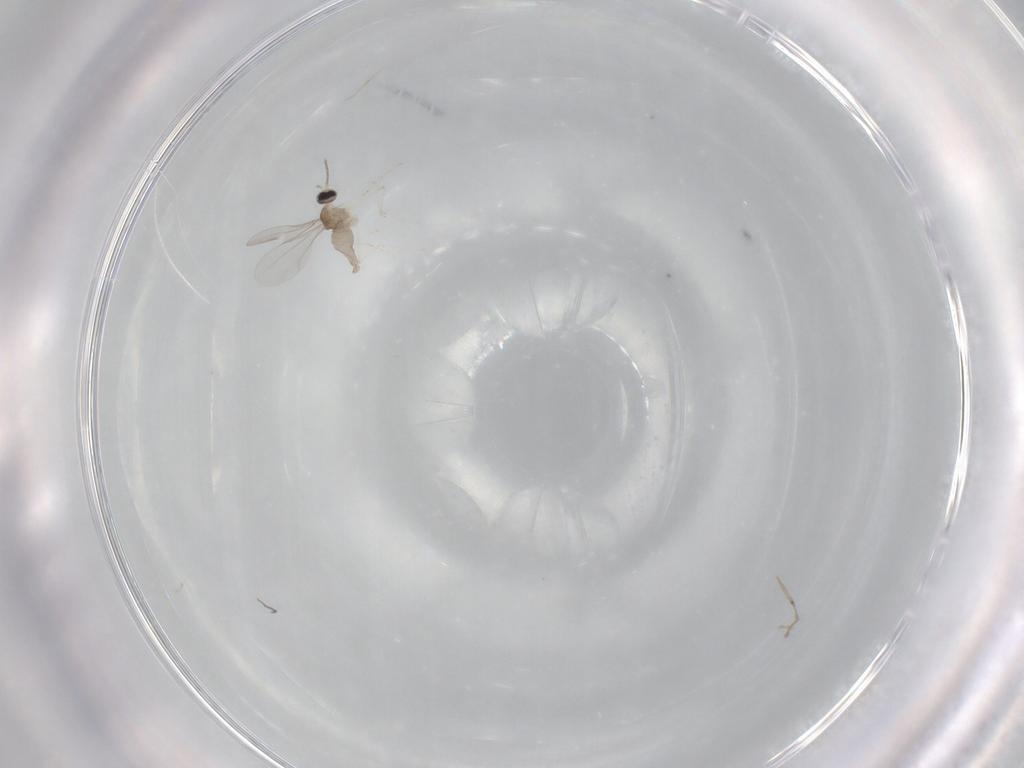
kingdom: Animalia
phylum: Arthropoda
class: Insecta
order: Diptera
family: Cecidomyiidae
